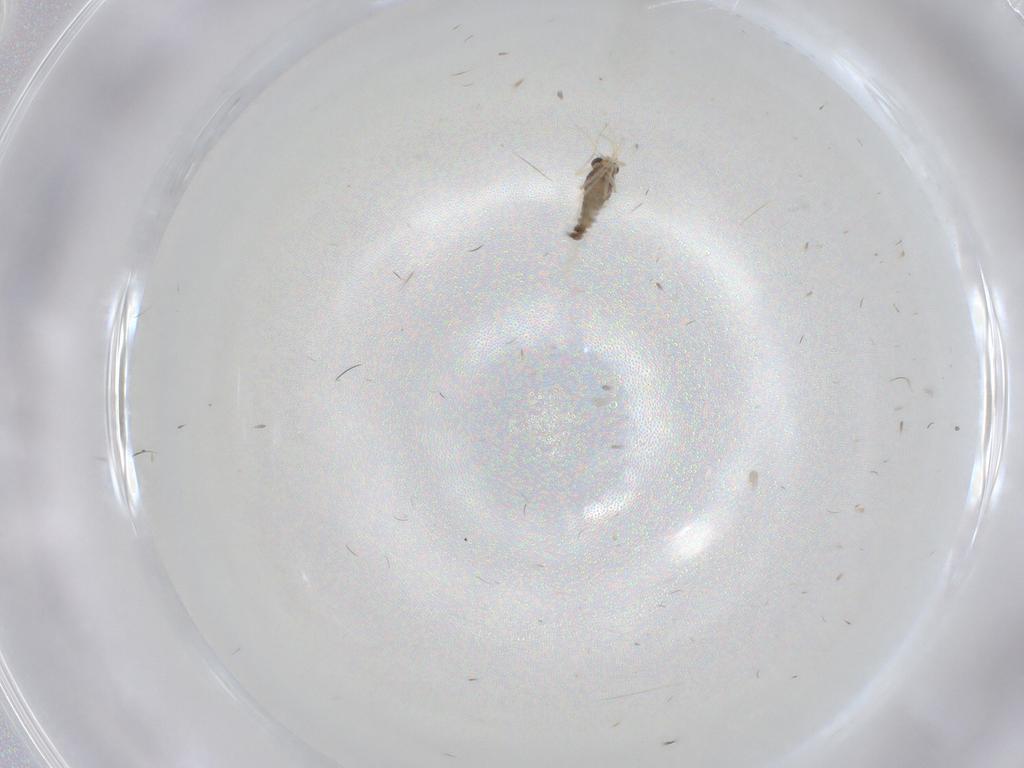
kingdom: Animalia
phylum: Arthropoda
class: Insecta
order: Diptera
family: Chironomidae
